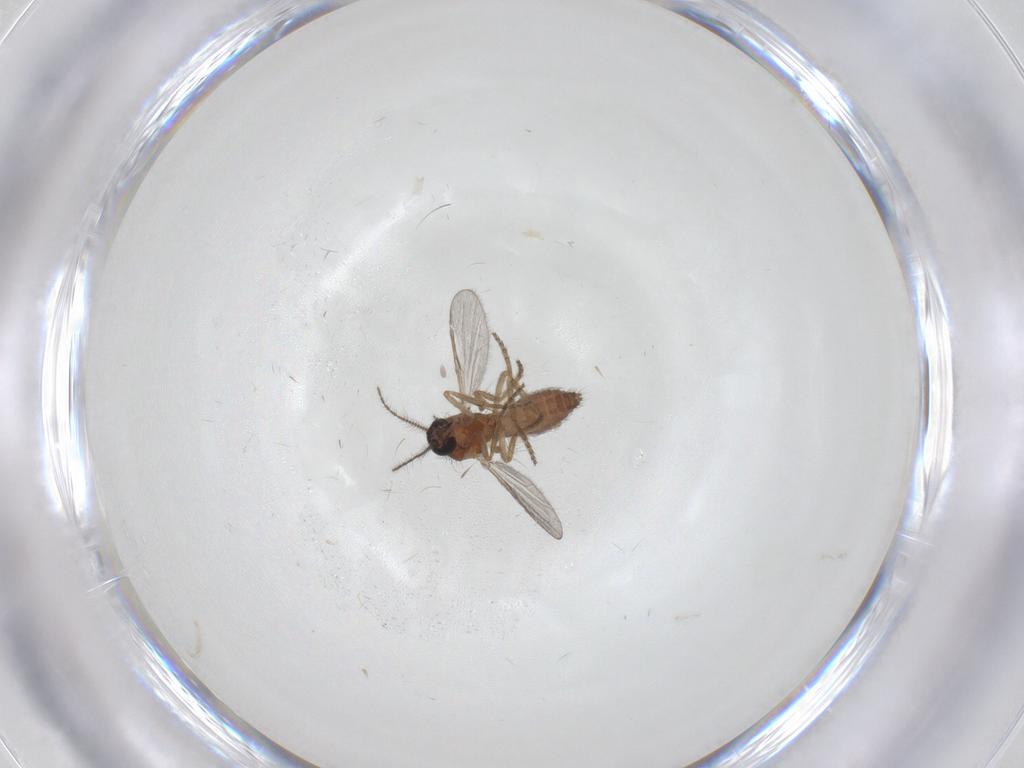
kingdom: Animalia
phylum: Arthropoda
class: Insecta
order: Diptera
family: Ceratopogonidae
